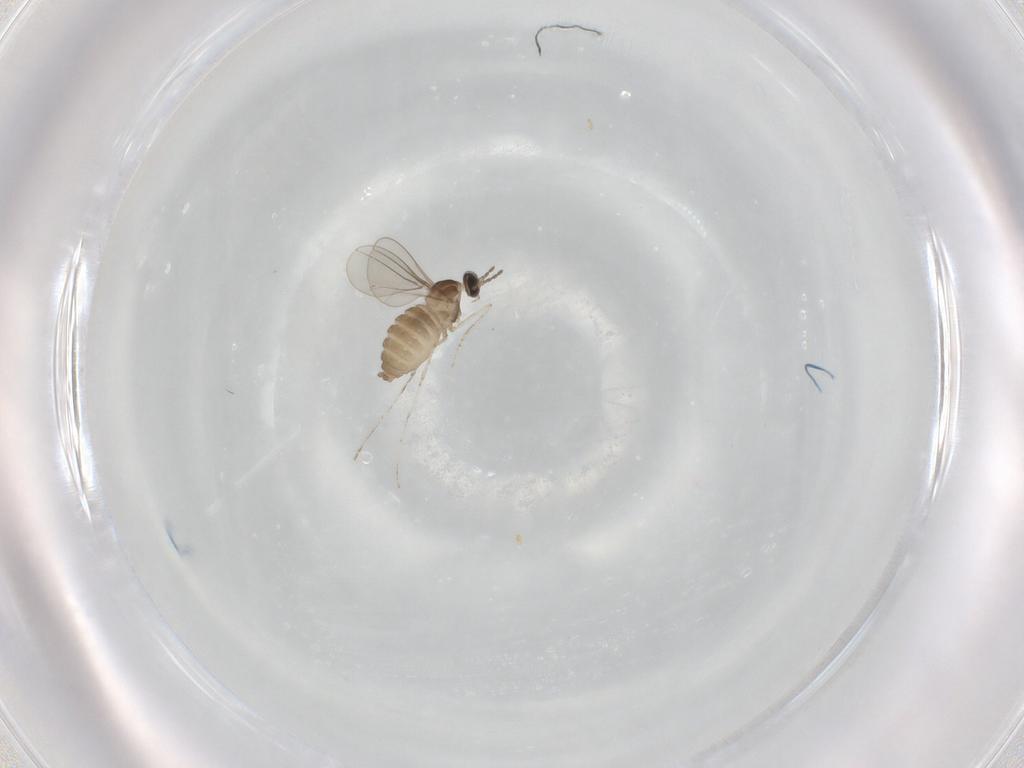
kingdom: Animalia
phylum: Arthropoda
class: Insecta
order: Diptera
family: Cecidomyiidae
